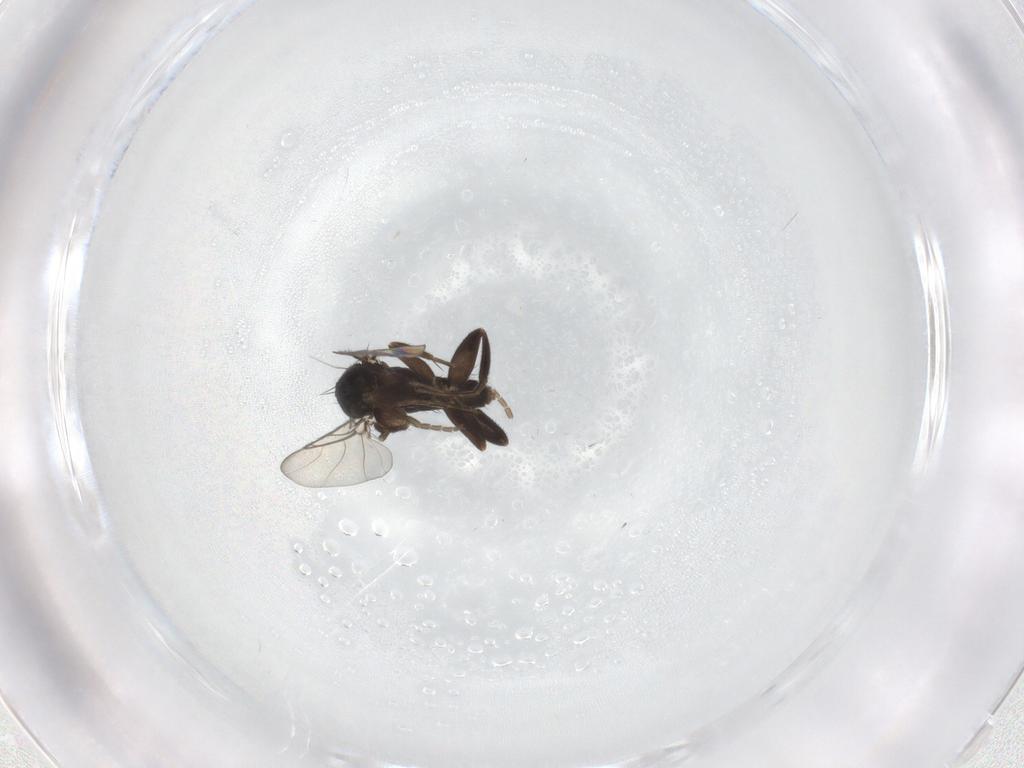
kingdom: Animalia
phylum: Arthropoda
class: Insecta
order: Diptera
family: Phoridae
